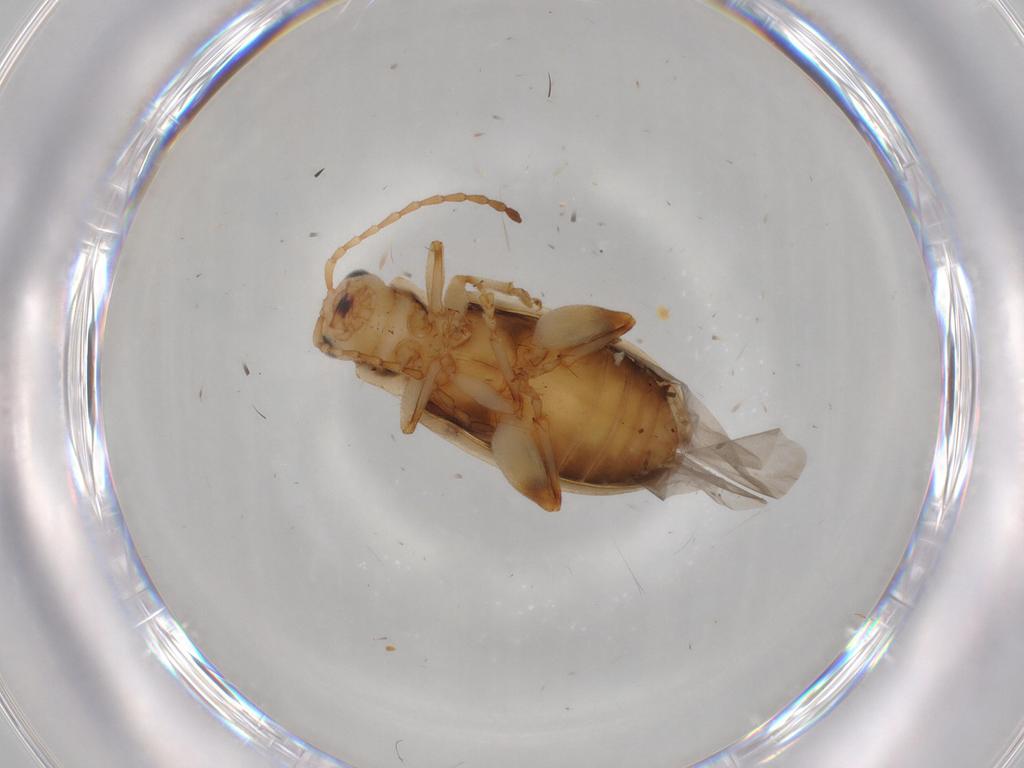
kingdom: Animalia
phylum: Arthropoda
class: Insecta
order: Coleoptera
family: Chrysomelidae
